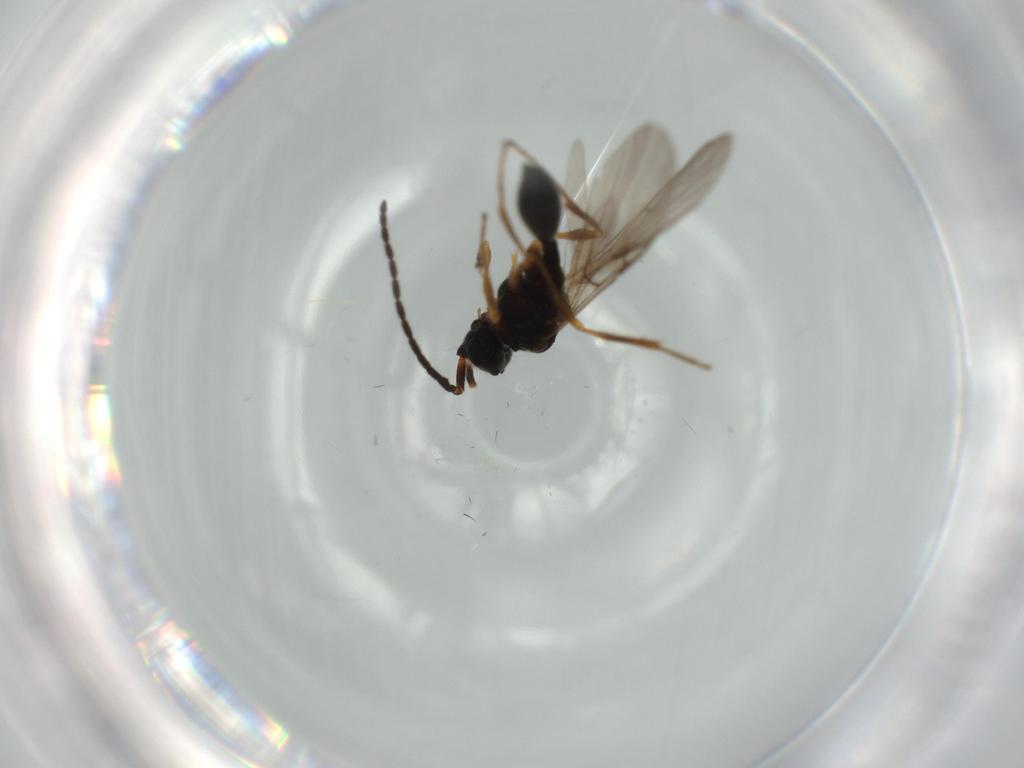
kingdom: Animalia
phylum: Arthropoda
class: Insecta
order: Hymenoptera
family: Diapriidae
